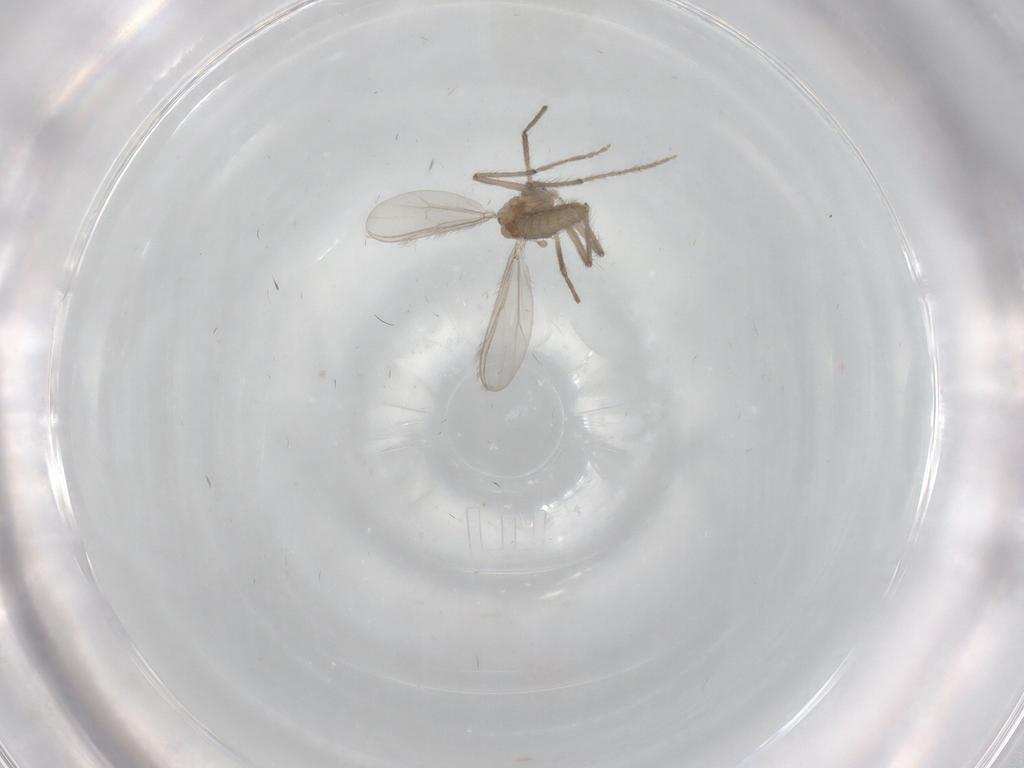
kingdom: Animalia
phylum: Arthropoda
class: Insecta
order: Diptera
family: Chironomidae
